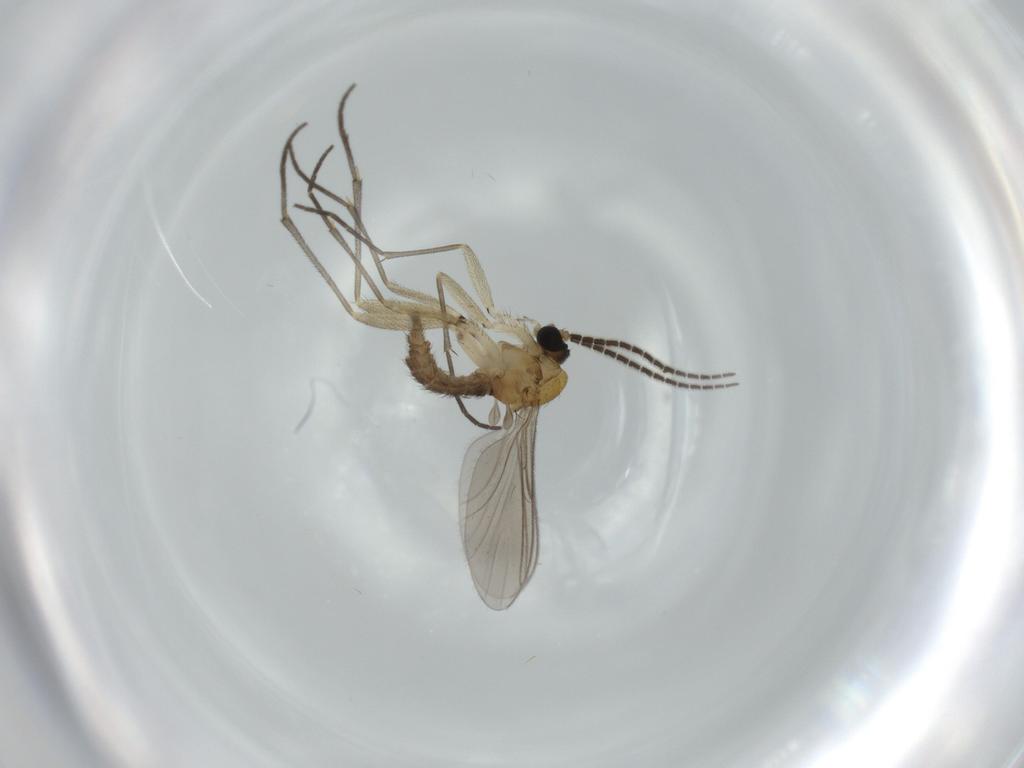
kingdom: Animalia
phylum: Arthropoda
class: Insecta
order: Diptera
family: Sciaridae
